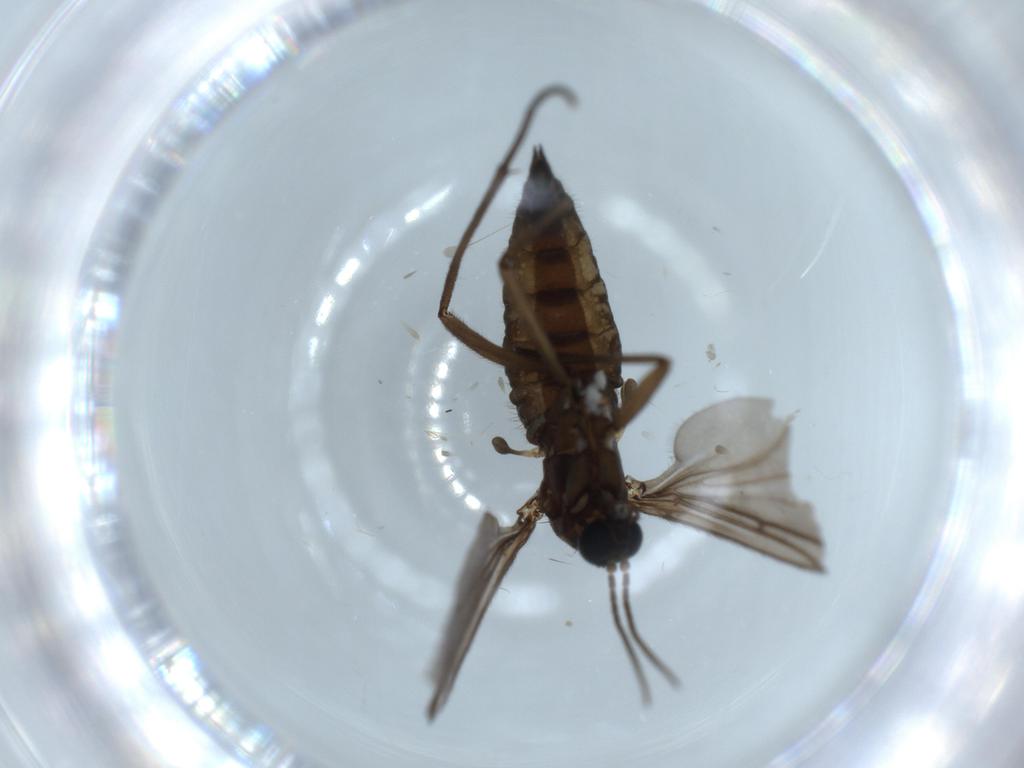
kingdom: Animalia
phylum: Arthropoda
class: Insecta
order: Diptera
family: Sciaridae
